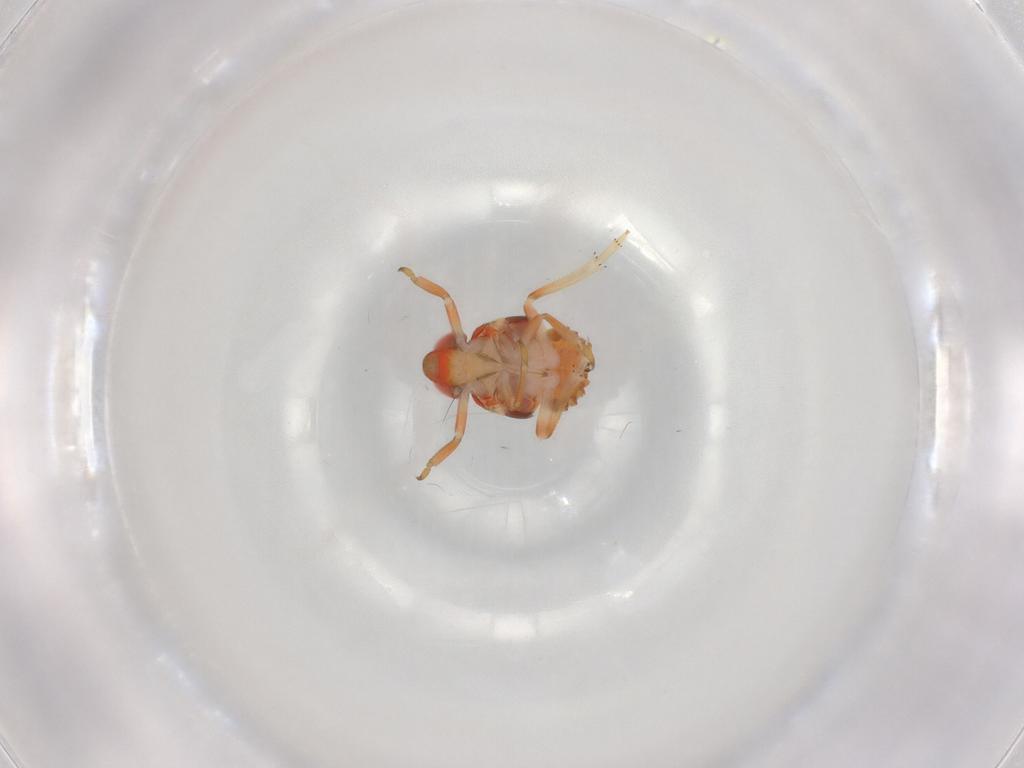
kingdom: Animalia
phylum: Arthropoda
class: Insecta
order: Hemiptera
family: Issidae
